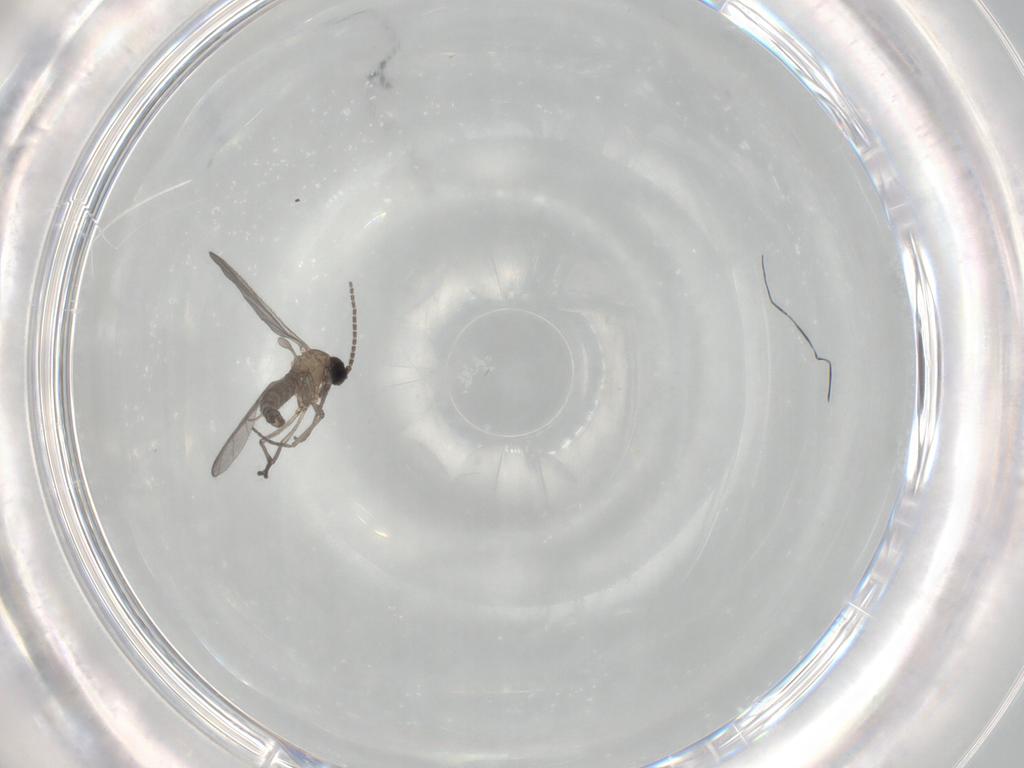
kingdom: Animalia
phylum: Arthropoda
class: Insecta
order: Diptera
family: Sciaridae
